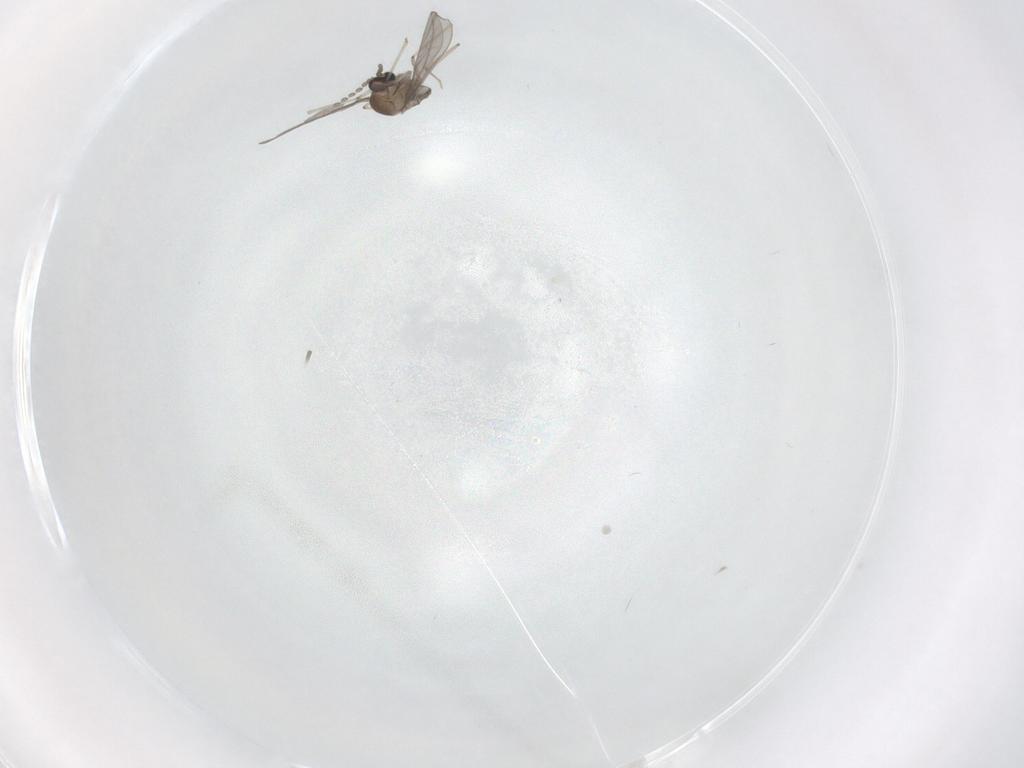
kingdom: Animalia
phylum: Arthropoda
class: Insecta
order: Diptera
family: Cecidomyiidae
